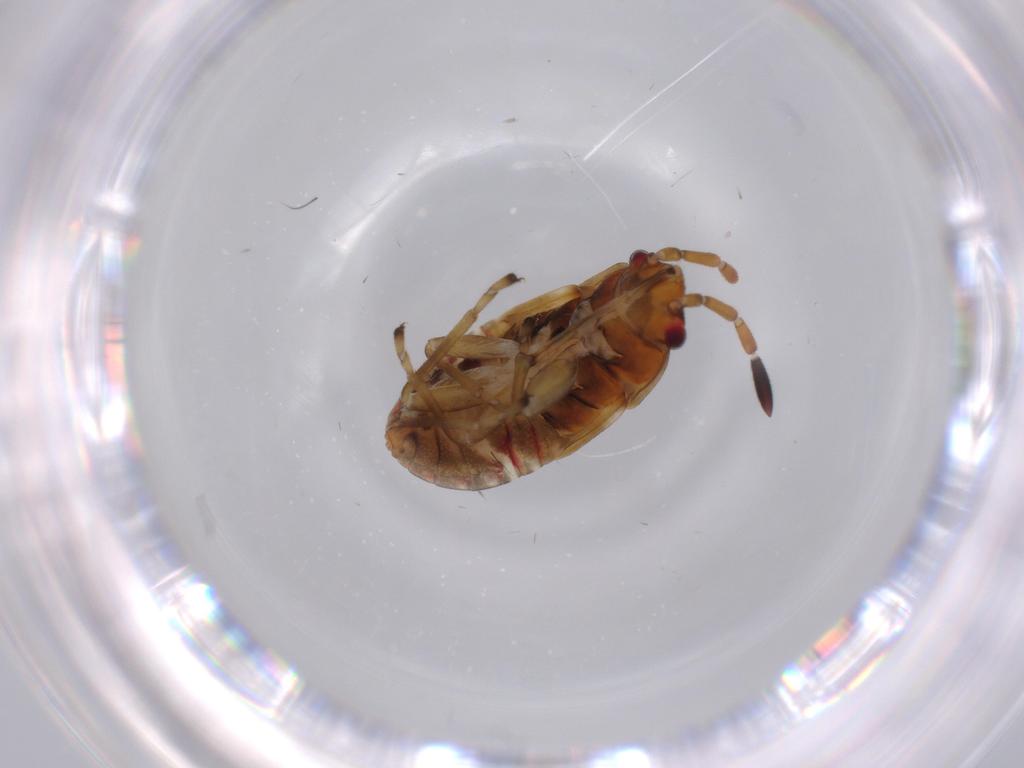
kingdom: Animalia
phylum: Arthropoda
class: Insecta
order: Hemiptera
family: Rhyparochromidae
